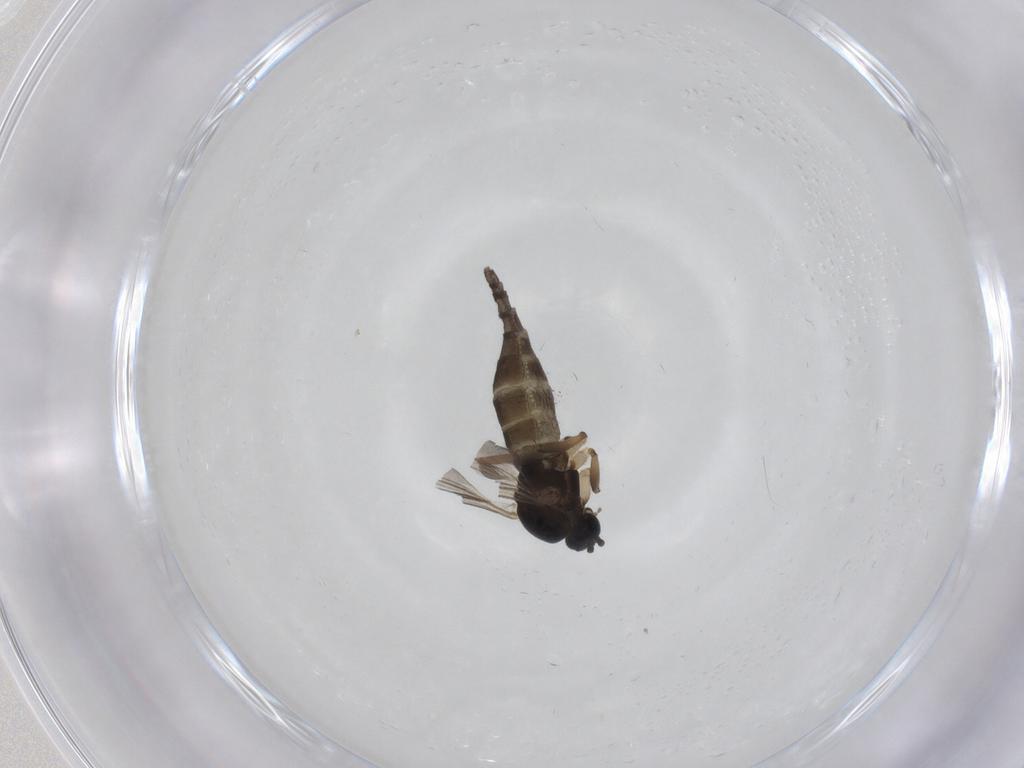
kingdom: Animalia
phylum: Arthropoda
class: Insecta
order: Diptera
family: Sciaridae
